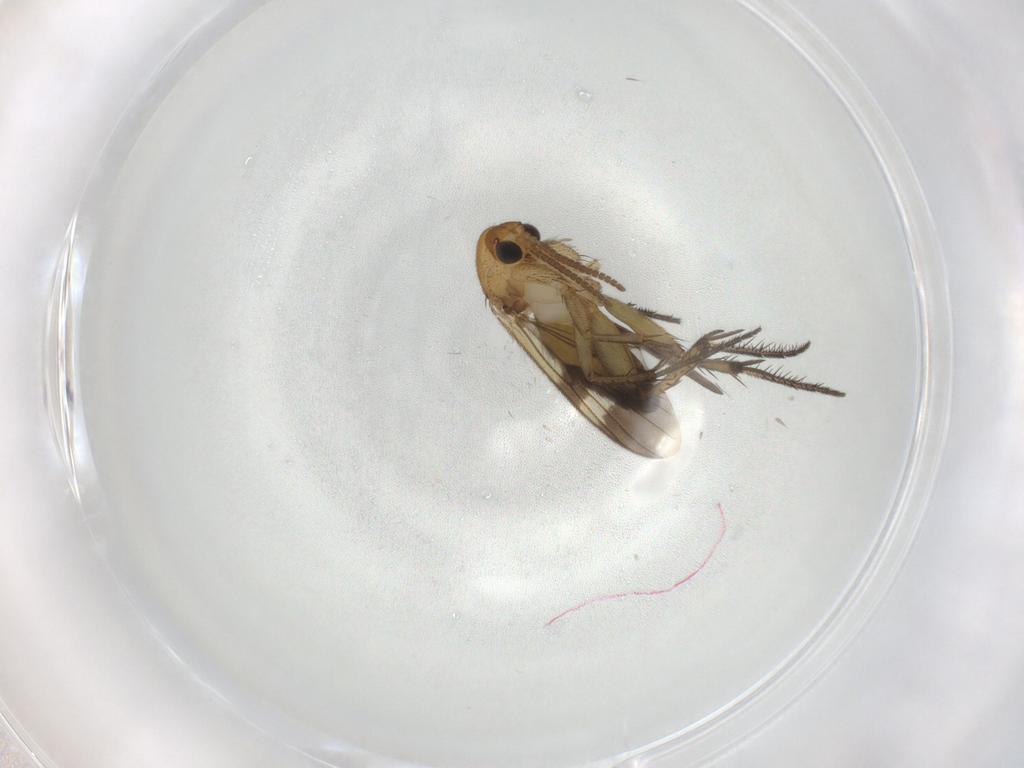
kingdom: Animalia
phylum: Arthropoda
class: Insecta
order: Diptera
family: Mycetophilidae
